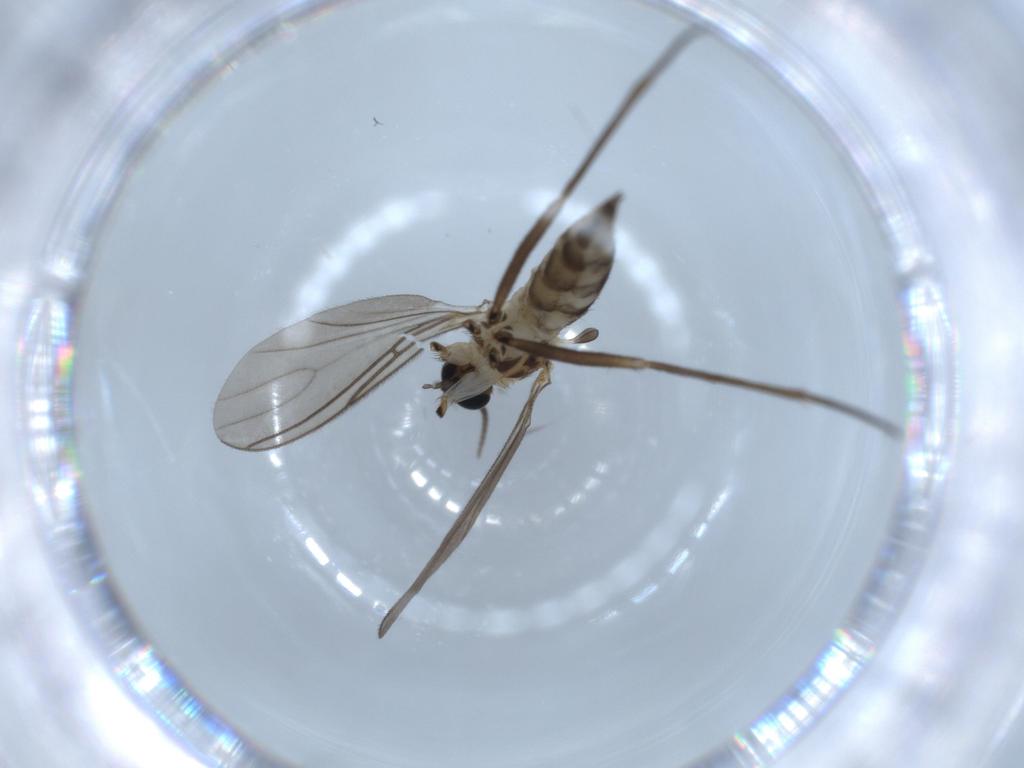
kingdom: Animalia
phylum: Arthropoda
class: Insecta
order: Diptera
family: Sciaridae
